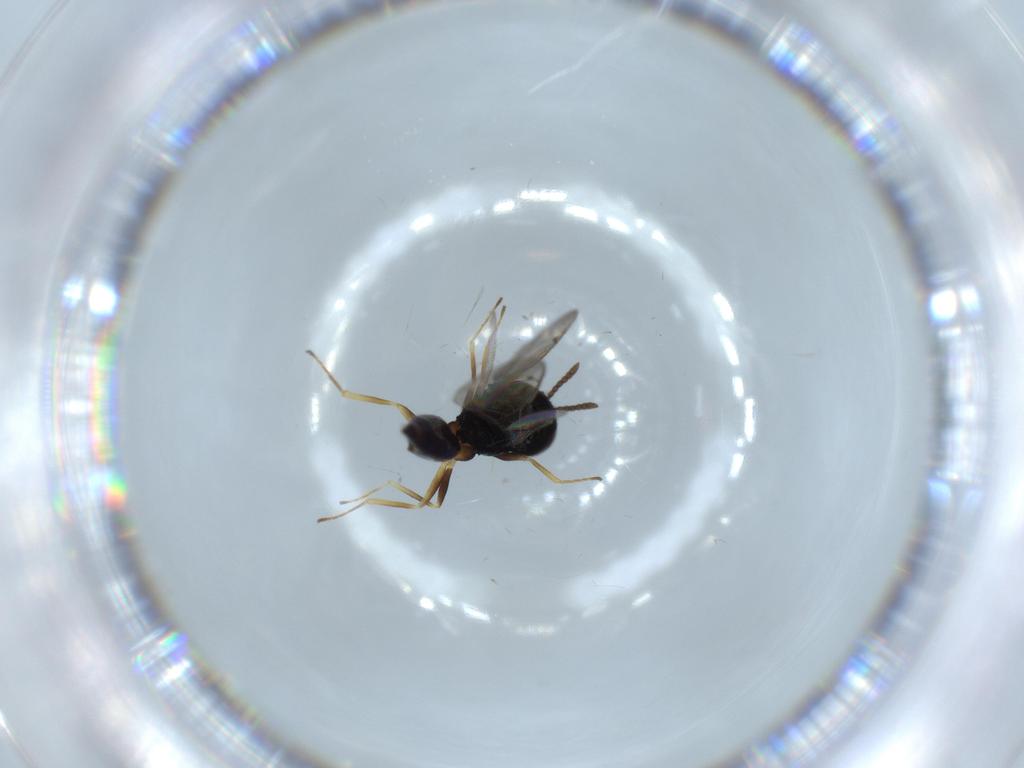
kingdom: Animalia
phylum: Arthropoda
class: Insecta
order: Hymenoptera
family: Pteromalidae
